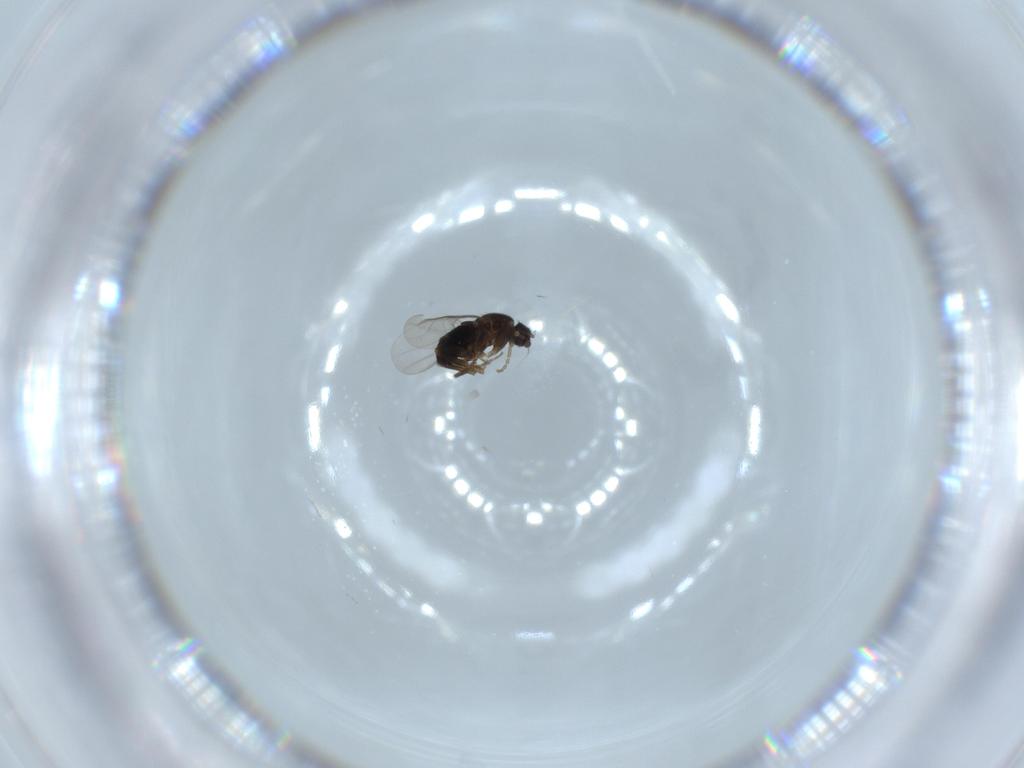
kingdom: Animalia
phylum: Arthropoda
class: Insecta
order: Diptera
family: Phoridae
